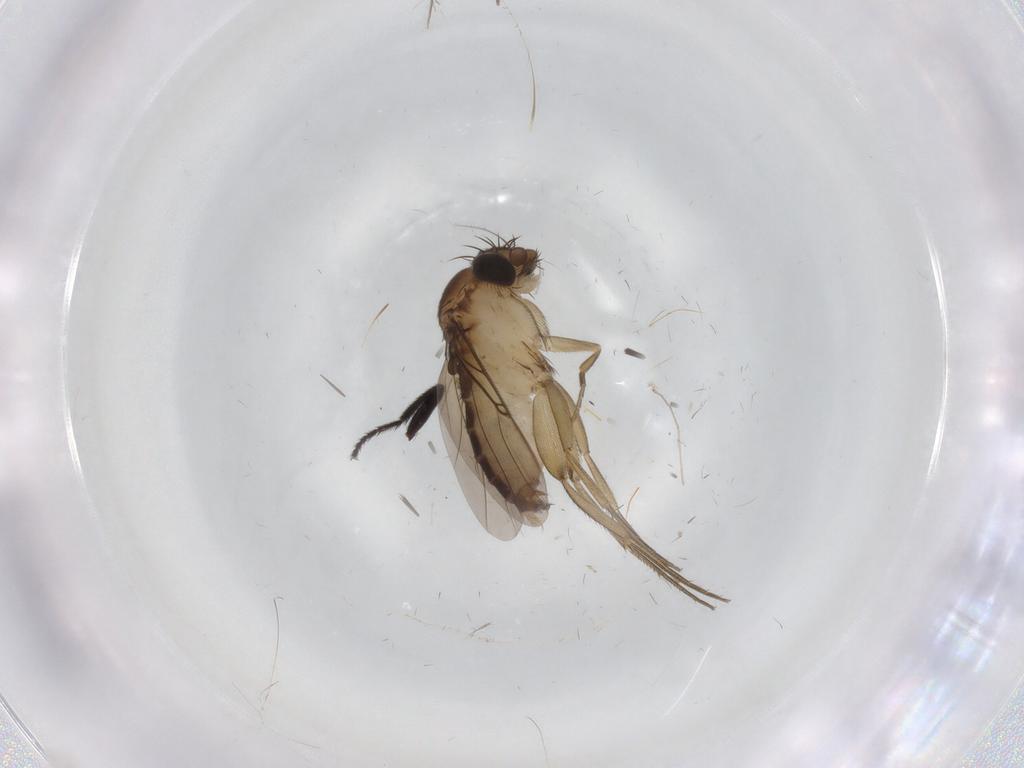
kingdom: Animalia
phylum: Arthropoda
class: Insecta
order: Diptera
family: Phoridae
